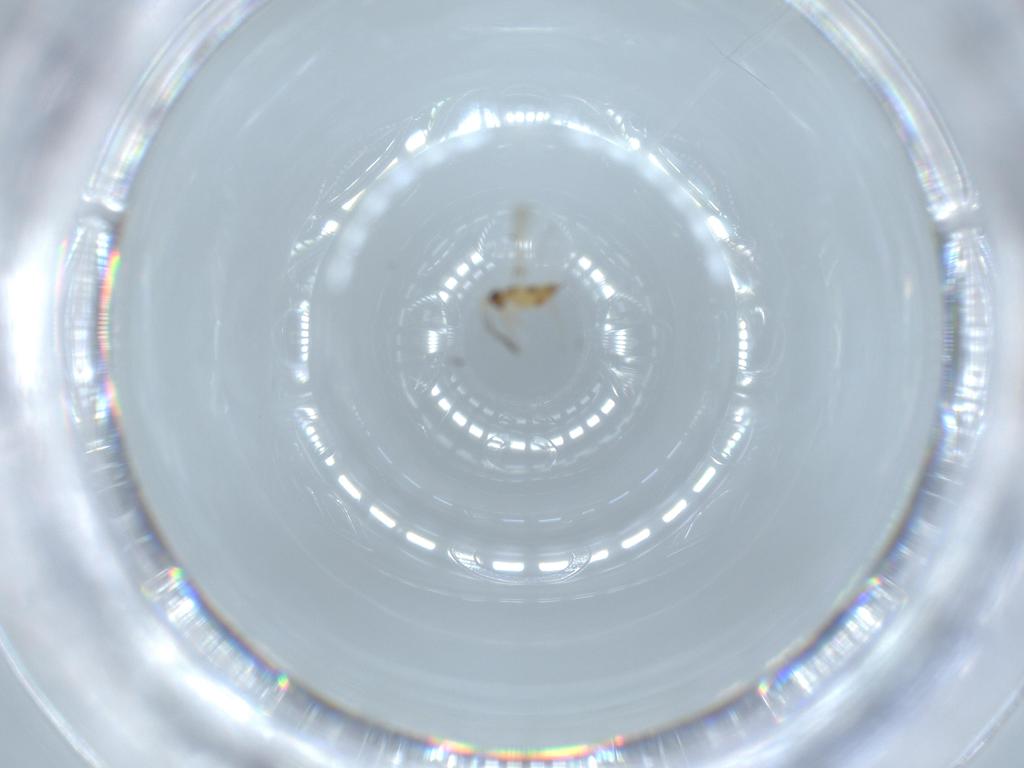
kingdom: Animalia
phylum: Arthropoda
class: Insecta
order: Hymenoptera
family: Mymaridae
